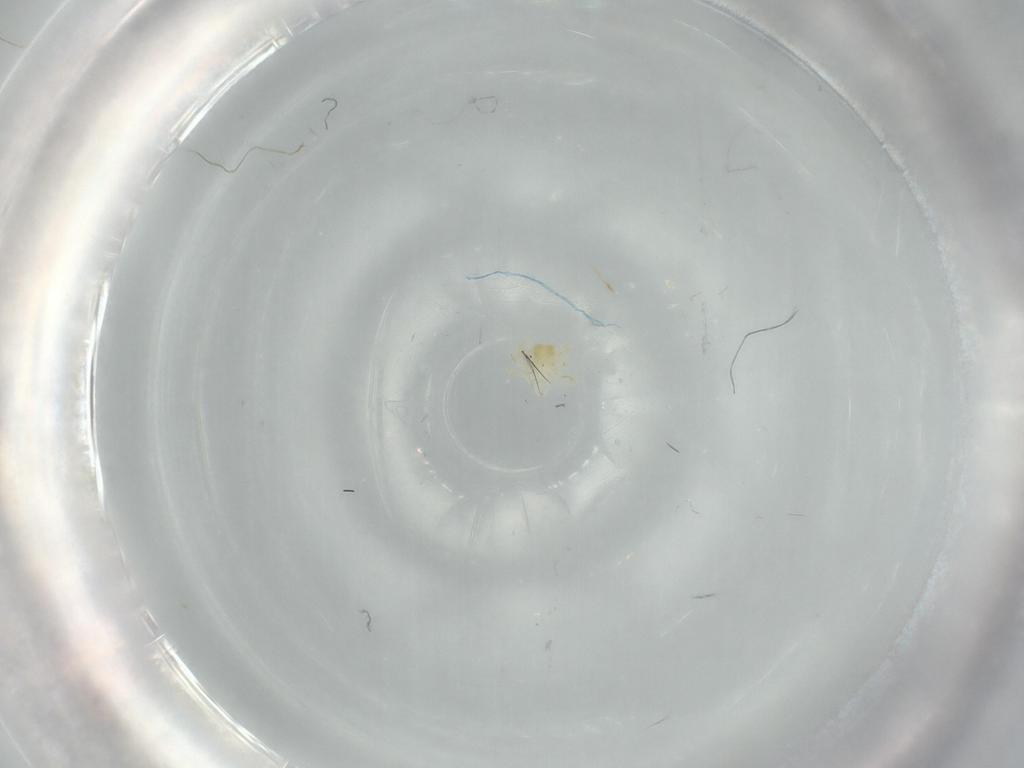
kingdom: Animalia
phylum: Arthropoda
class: Arachnida
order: Trombidiformes
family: Anystidae
